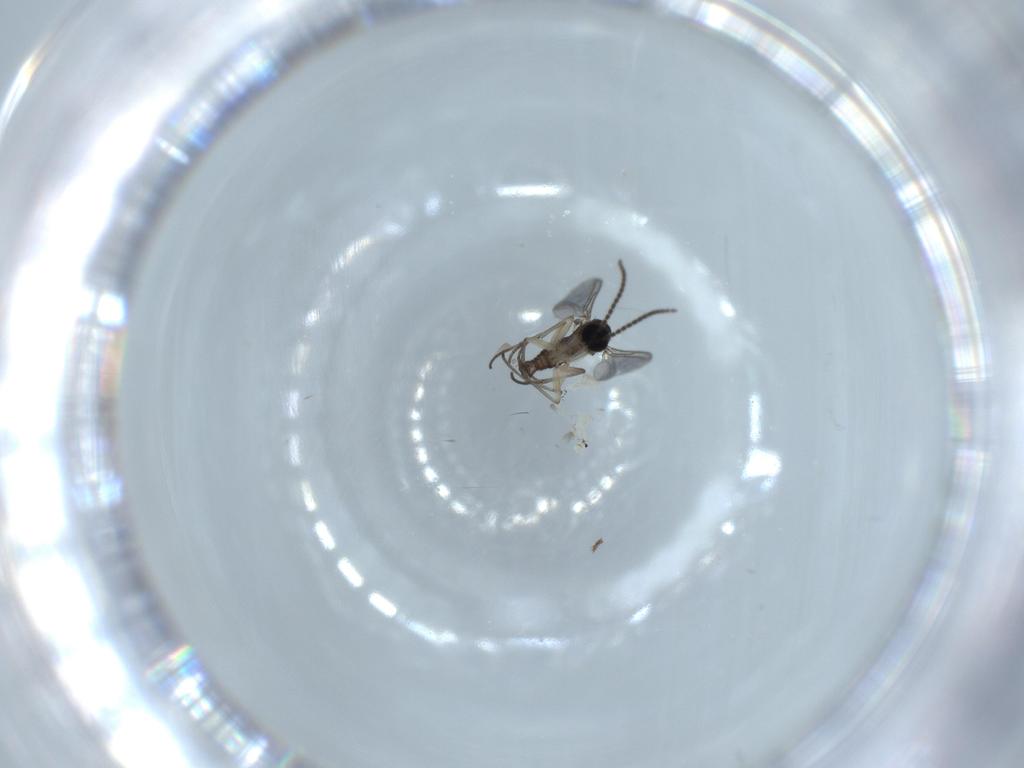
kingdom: Animalia
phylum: Arthropoda
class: Insecta
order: Diptera
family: Sciaridae
